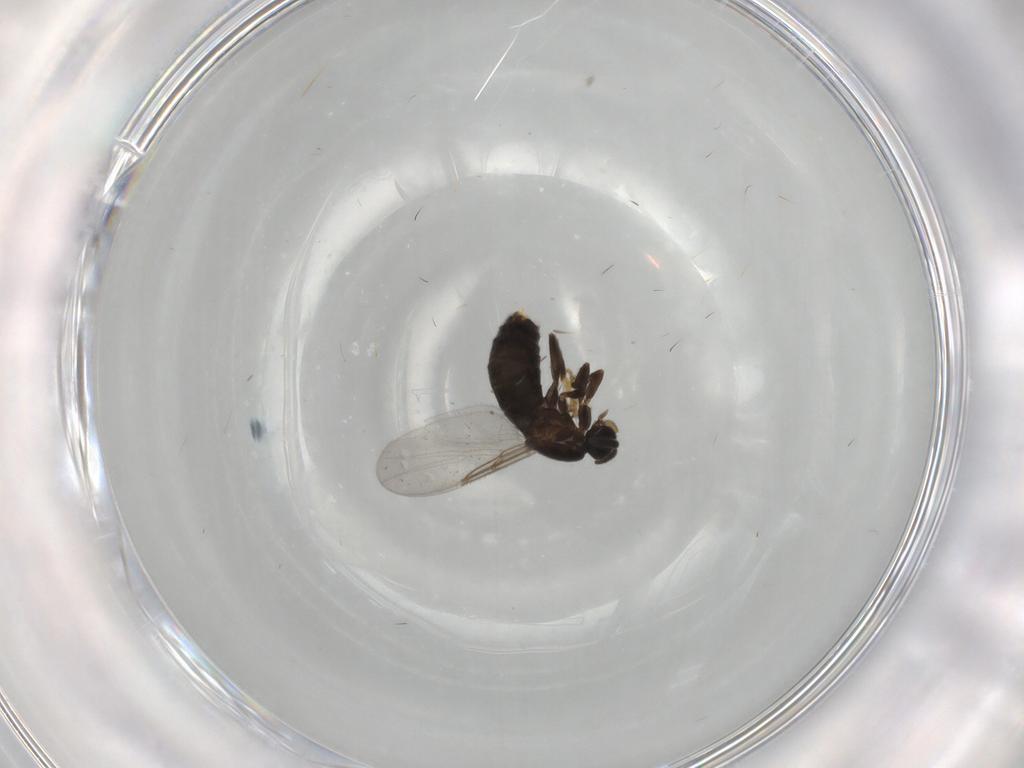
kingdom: Animalia
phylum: Arthropoda
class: Insecta
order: Diptera
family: Scatopsidae
